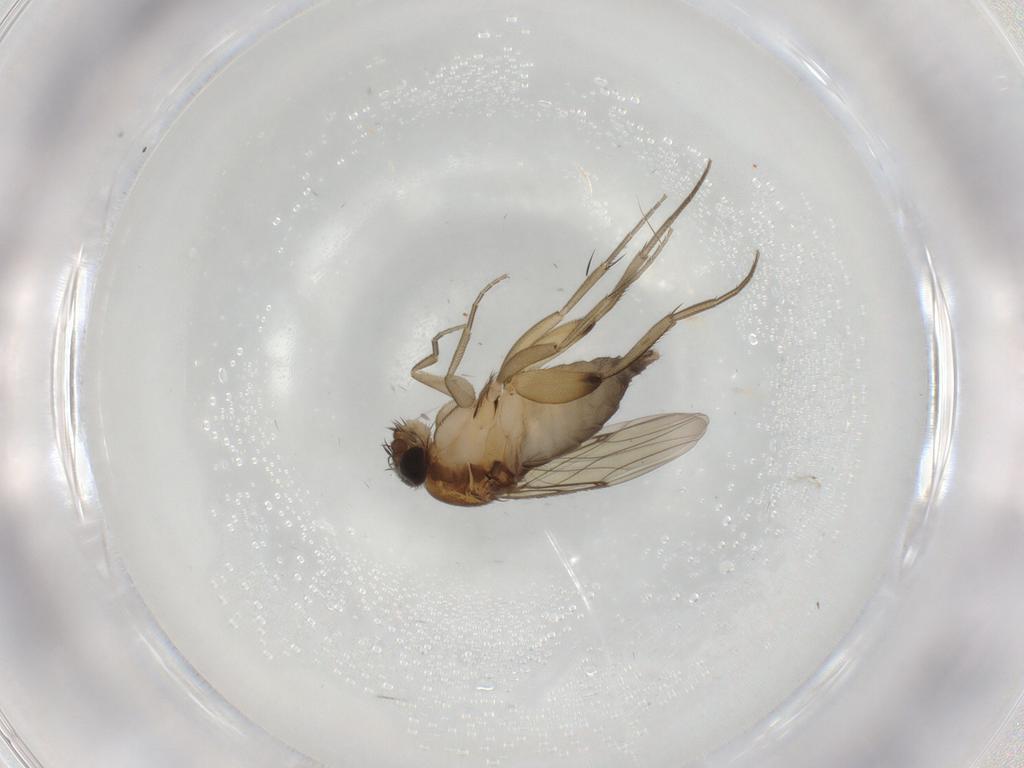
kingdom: Animalia
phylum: Arthropoda
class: Insecta
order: Diptera
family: Phoridae
